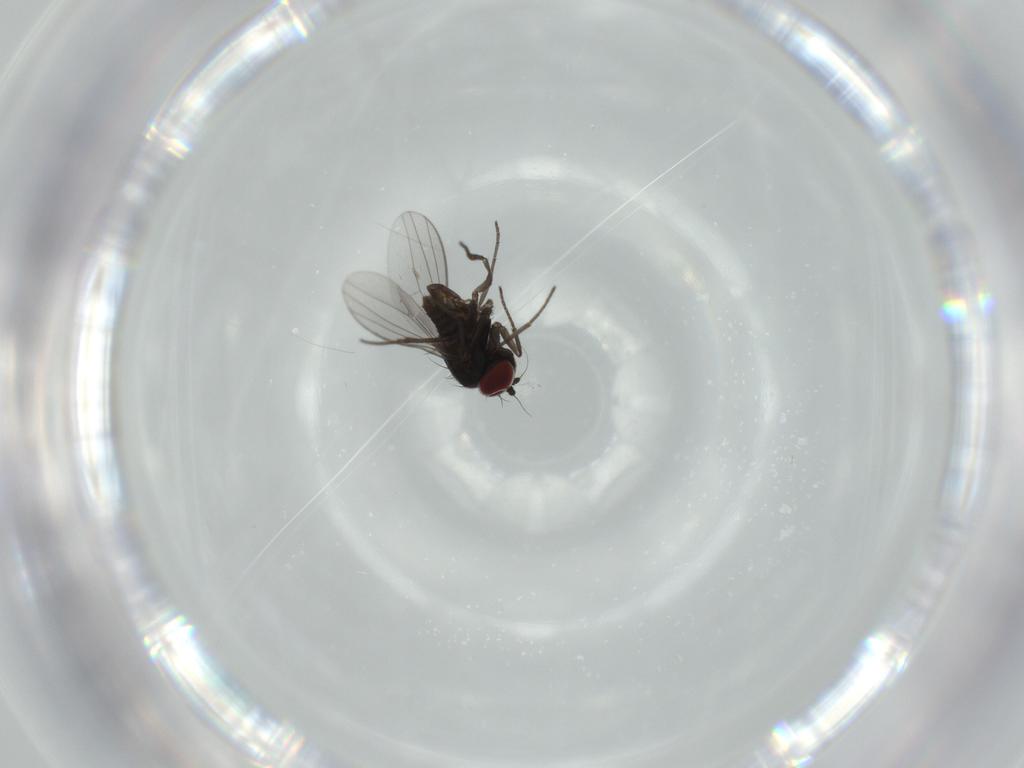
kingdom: Animalia
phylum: Arthropoda
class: Insecta
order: Diptera
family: Dolichopodidae
